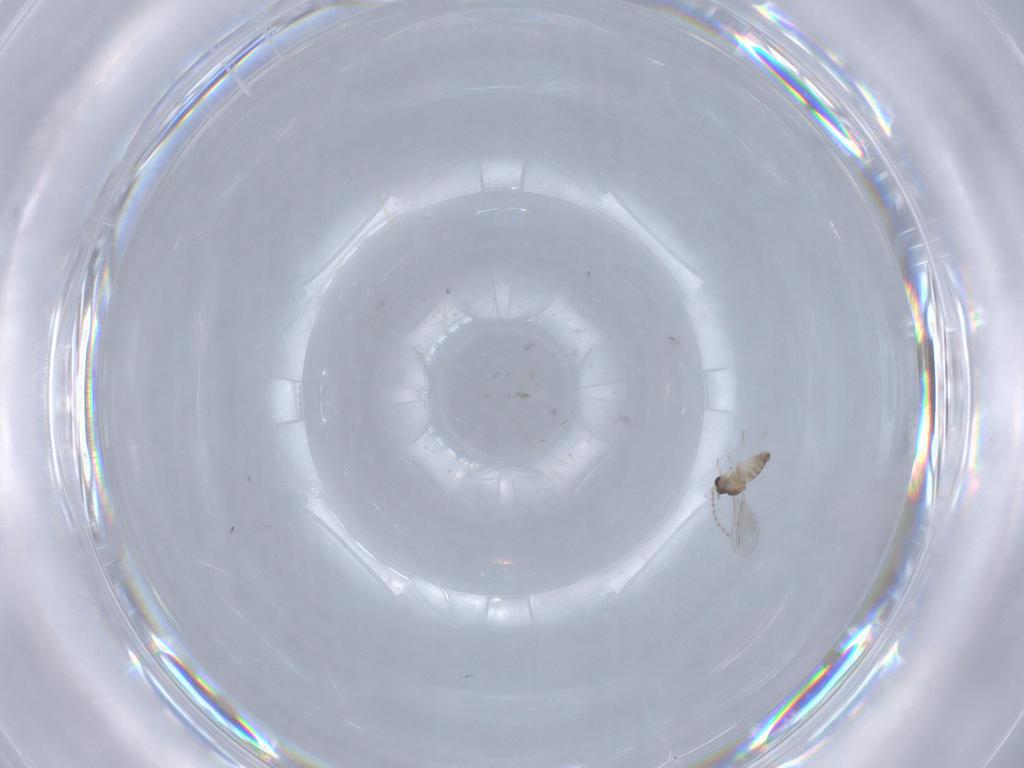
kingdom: Animalia
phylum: Arthropoda
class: Insecta
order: Diptera
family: Cecidomyiidae
